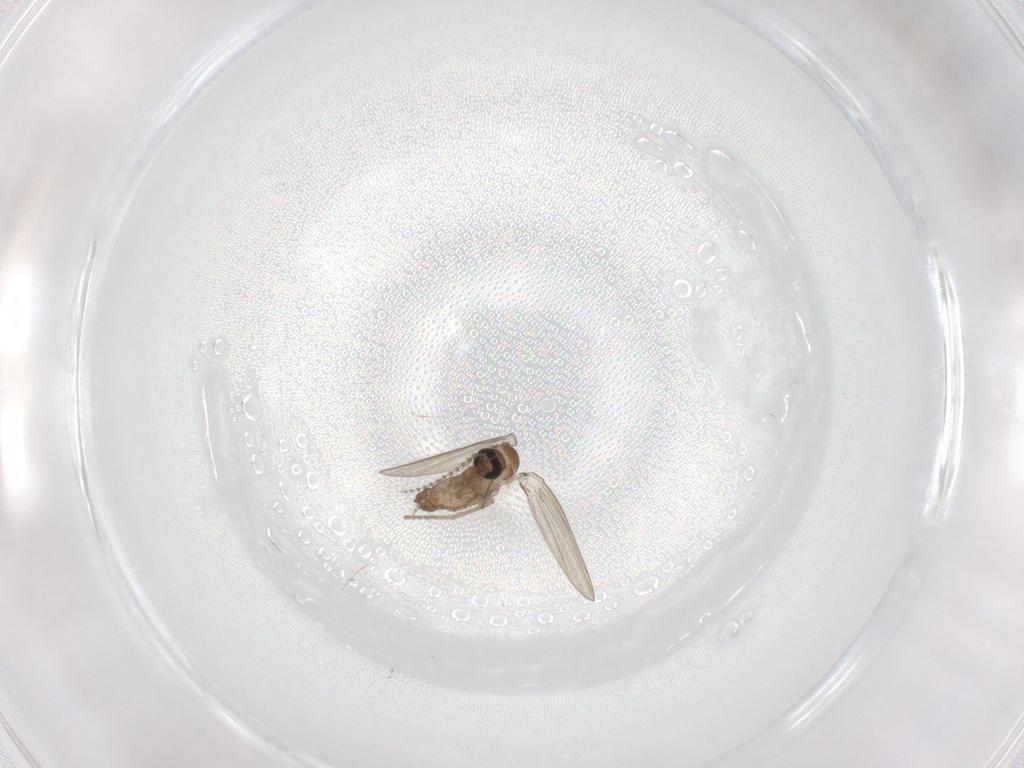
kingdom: Animalia
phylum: Arthropoda
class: Insecta
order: Diptera
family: Psychodidae
